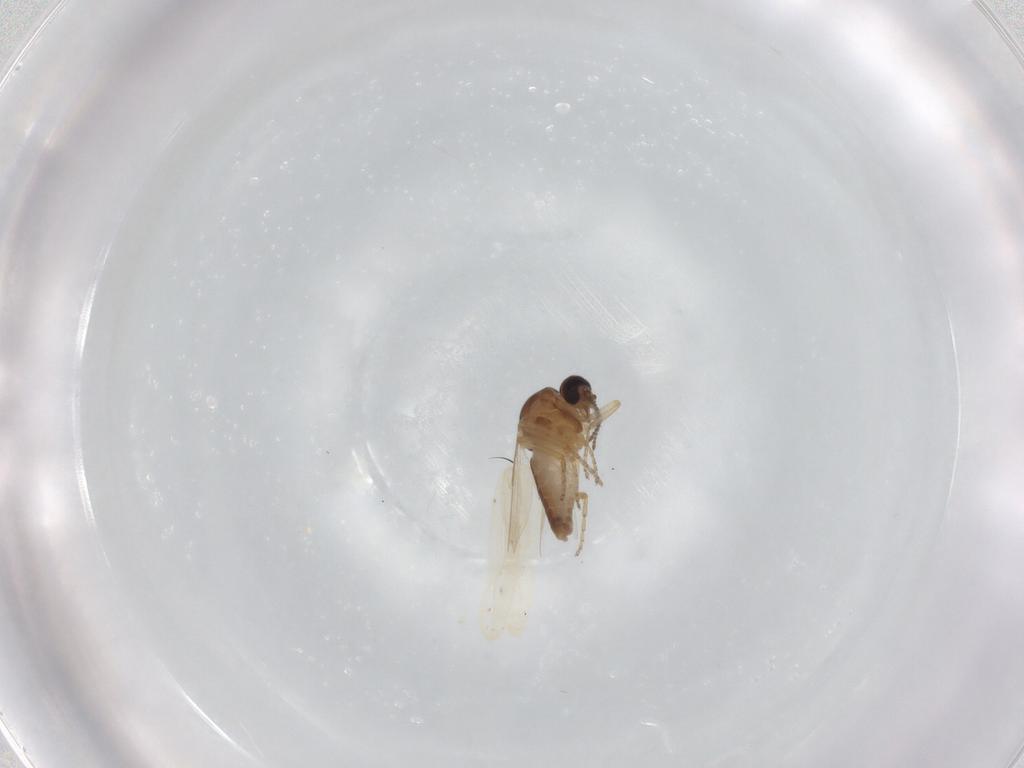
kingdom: Animalia
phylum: Arthropoda
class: Insecta
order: Diptera
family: Ceratopogonidae
